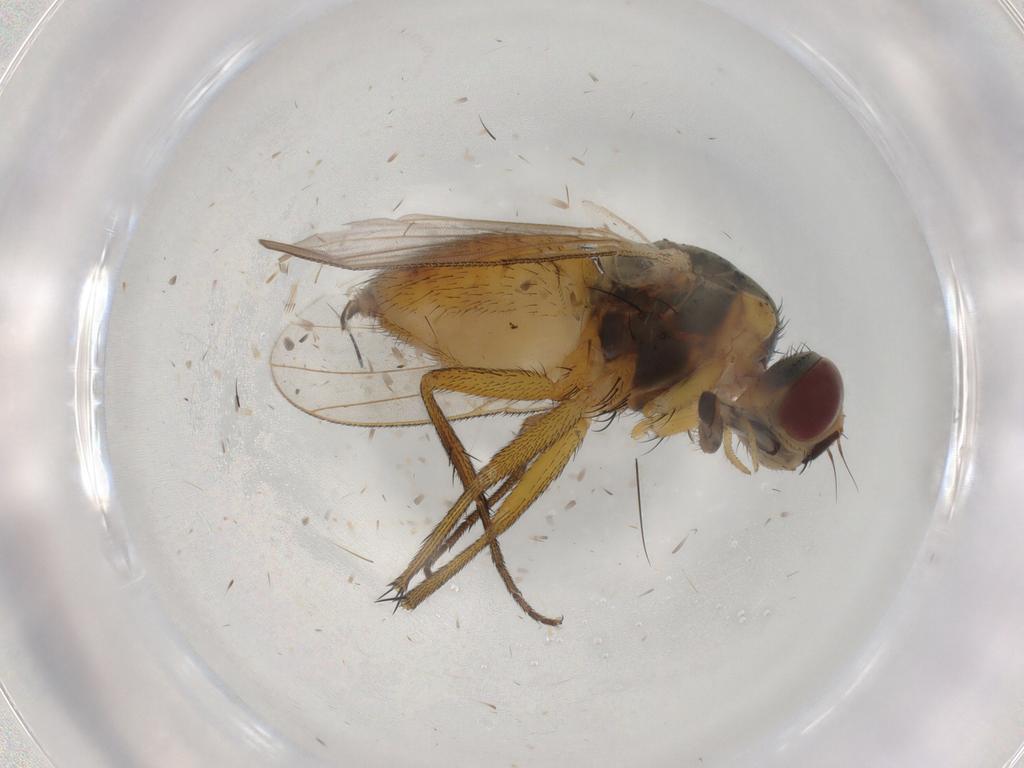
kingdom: Animalia
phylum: Arthropoda
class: Insecta
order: Diptera
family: Muscidae
